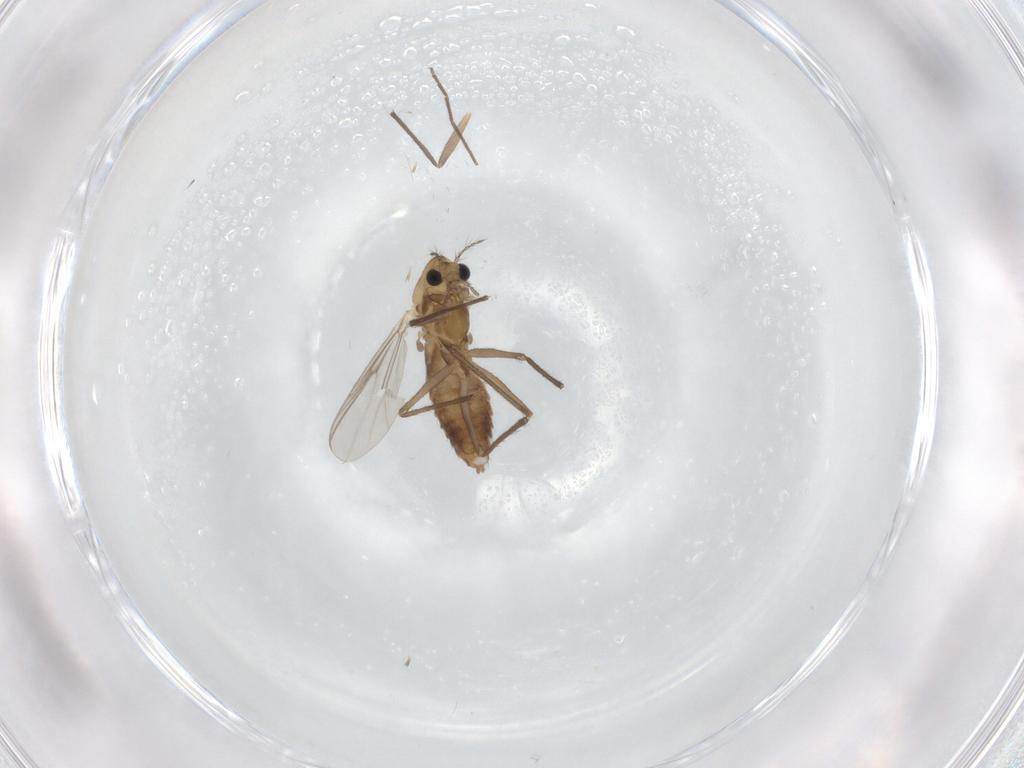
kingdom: Animalia
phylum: Arthropoda
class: Insecta
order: Diptera
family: Chironomidae
